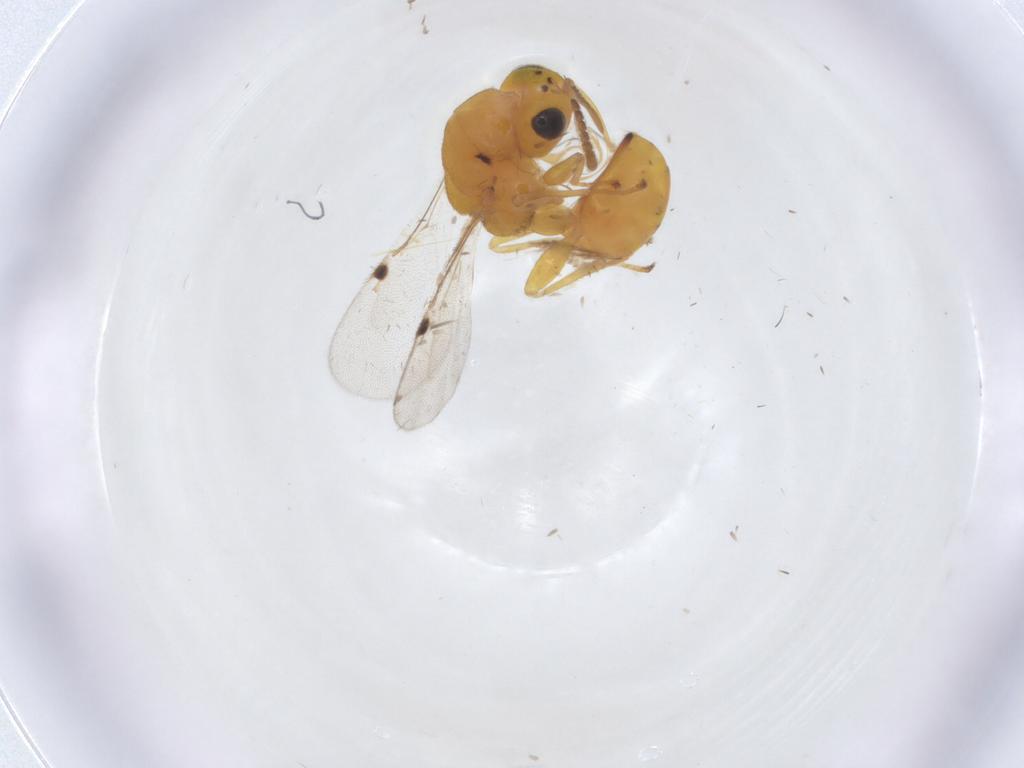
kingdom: Animalia
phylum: Arthropoda
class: Insecta
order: Hymenoptera
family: Eurytomidae
